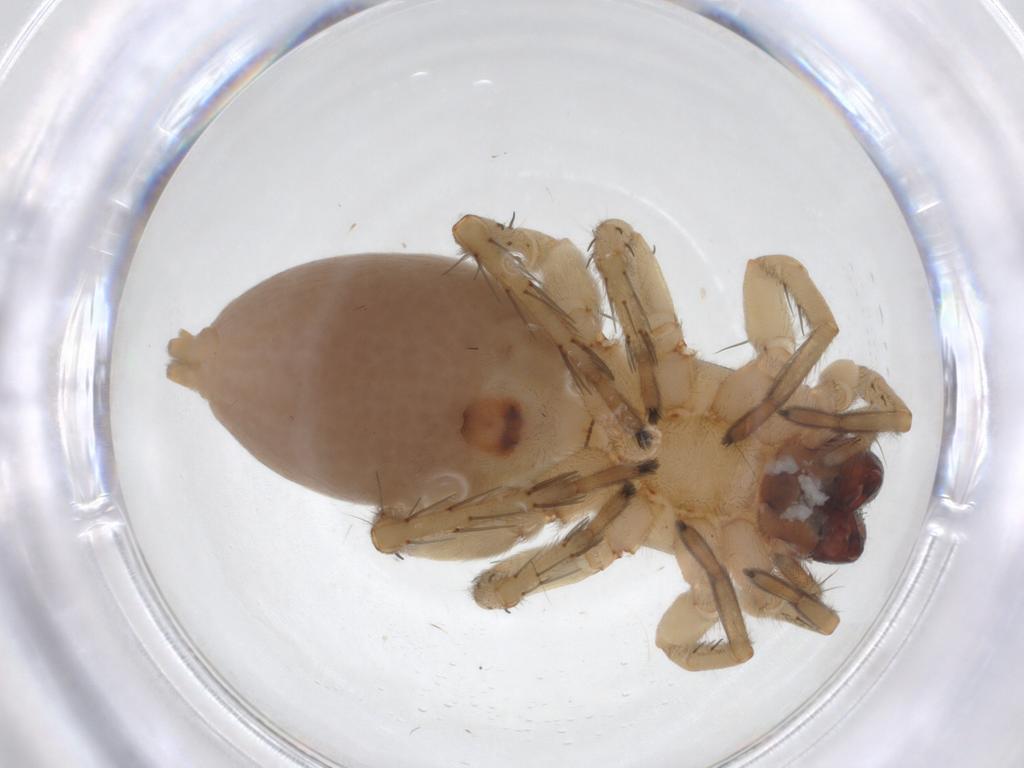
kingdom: Animalia
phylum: Arthropoda
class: Arachnida
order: Araneae
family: Clubionidae
